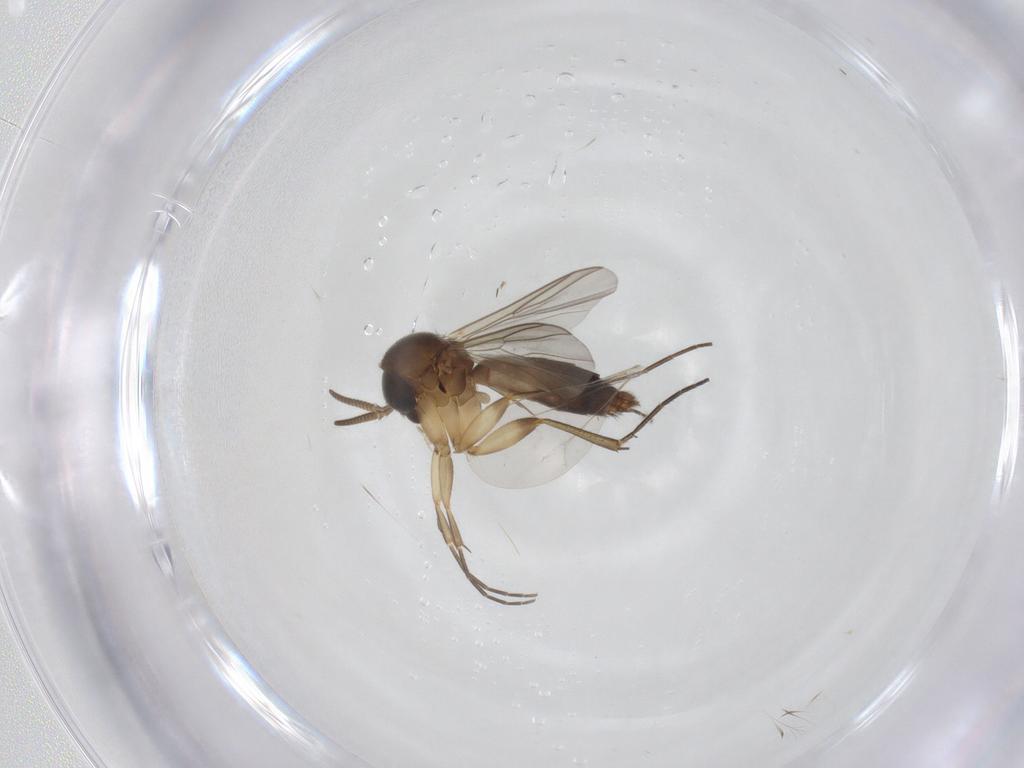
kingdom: Animalia
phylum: Arthropoda
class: Insecta
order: Diptera
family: Mycetophilidae
